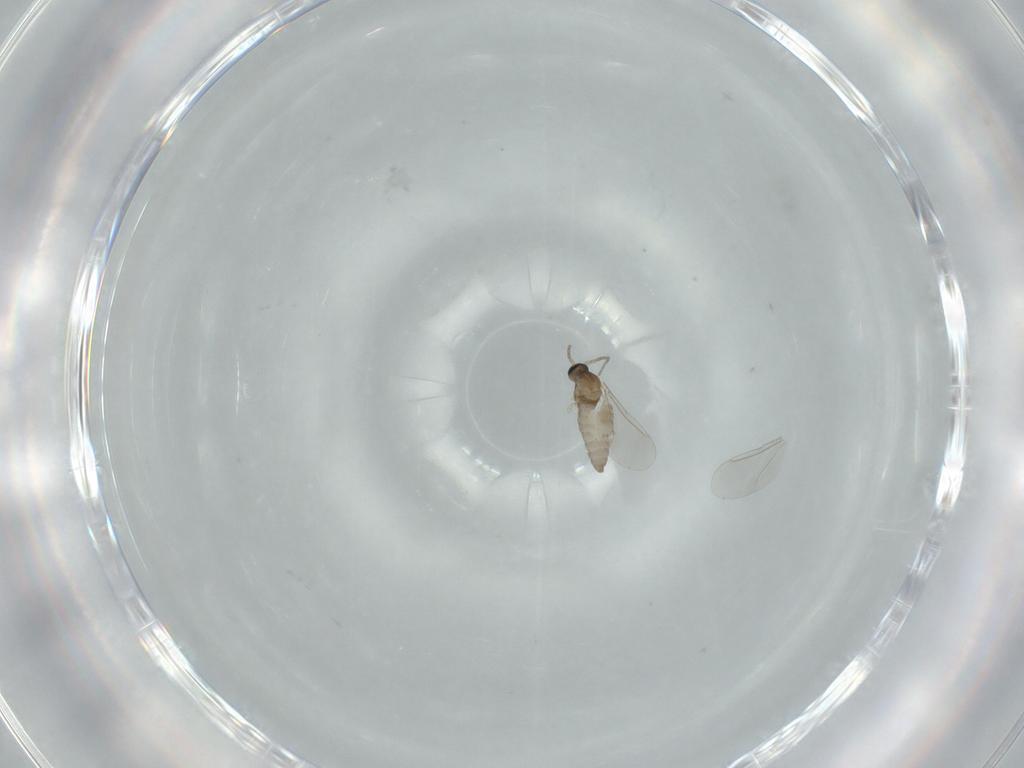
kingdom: Animalia
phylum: Arthropoda
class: Insecta
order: Diptera
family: Cecidomyiidae
